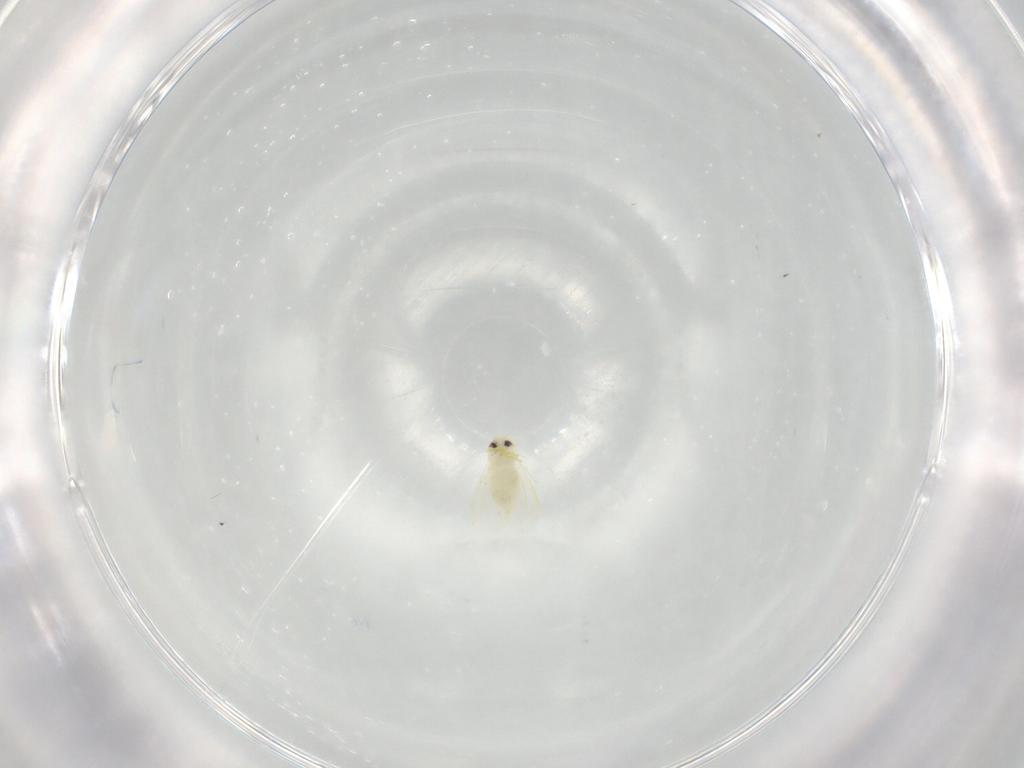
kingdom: Animalia
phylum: Arthropoda
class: Insecta
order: Hemiptera
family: Aleyrodidae
